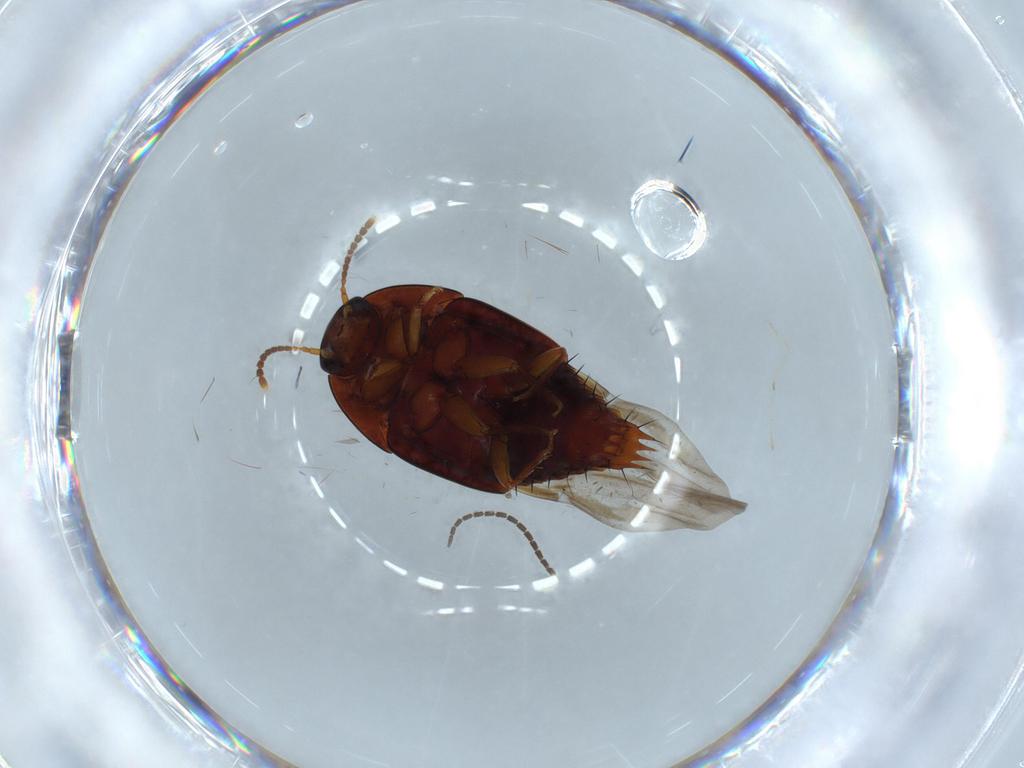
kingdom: Animalia
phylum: Arthropoda
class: Insecta
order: Coleoptera
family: Staphylinidae
